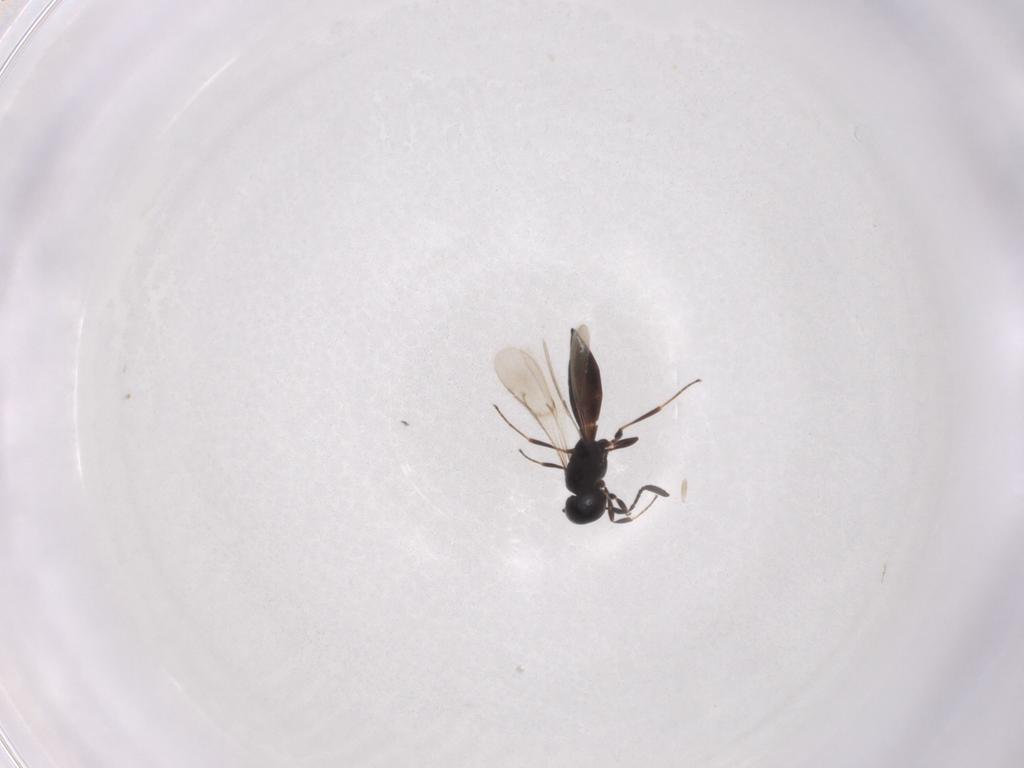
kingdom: Animalia
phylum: Arthropoda
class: Insecta
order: Hymenoptera
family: Scelionidae
